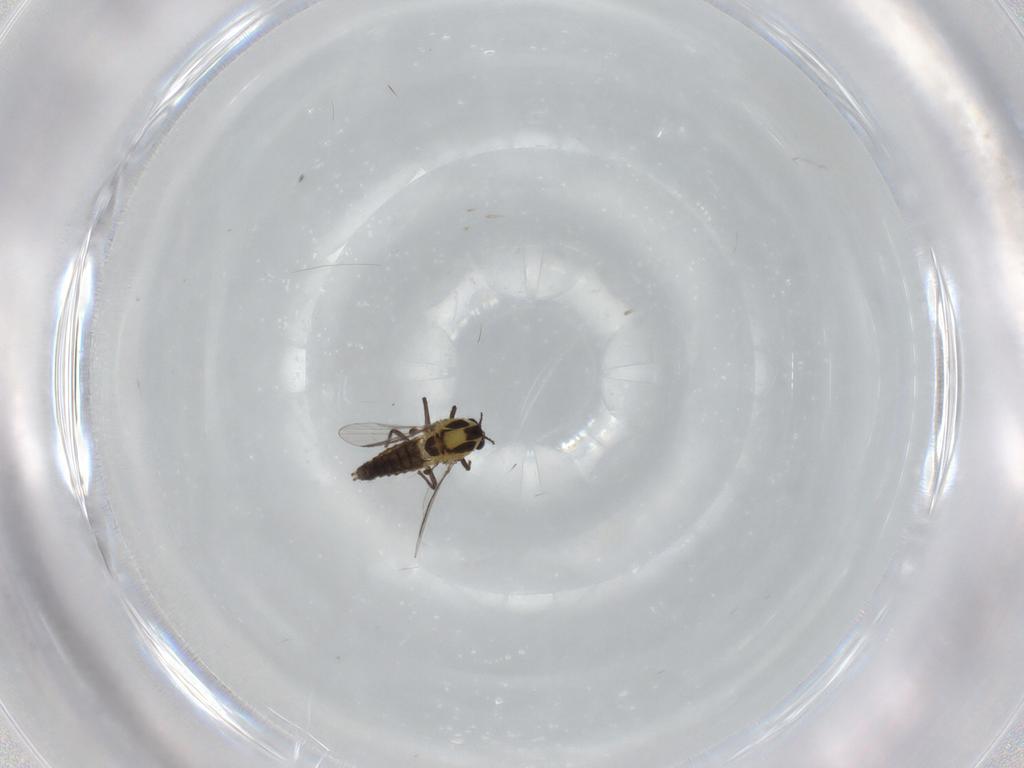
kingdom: Animalia
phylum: Arthropoda
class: Insecta
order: Diptera
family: Chironomidae
